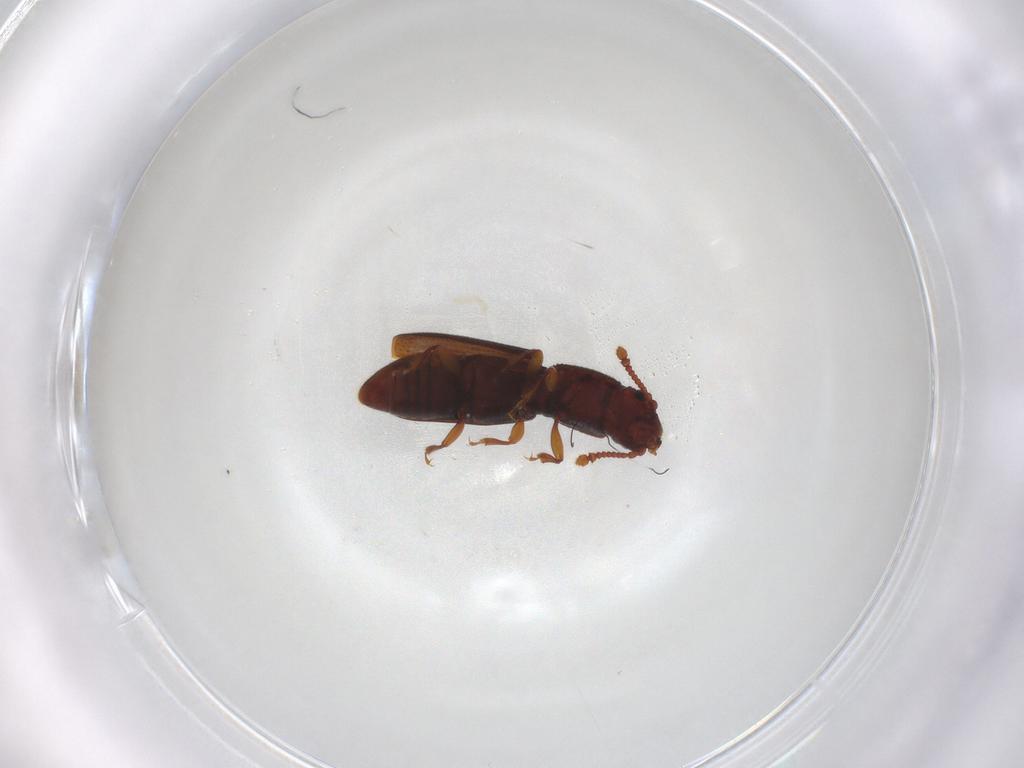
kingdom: Animalia
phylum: Arthropoda
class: Insecta
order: Coleoptera
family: Monotomidae
